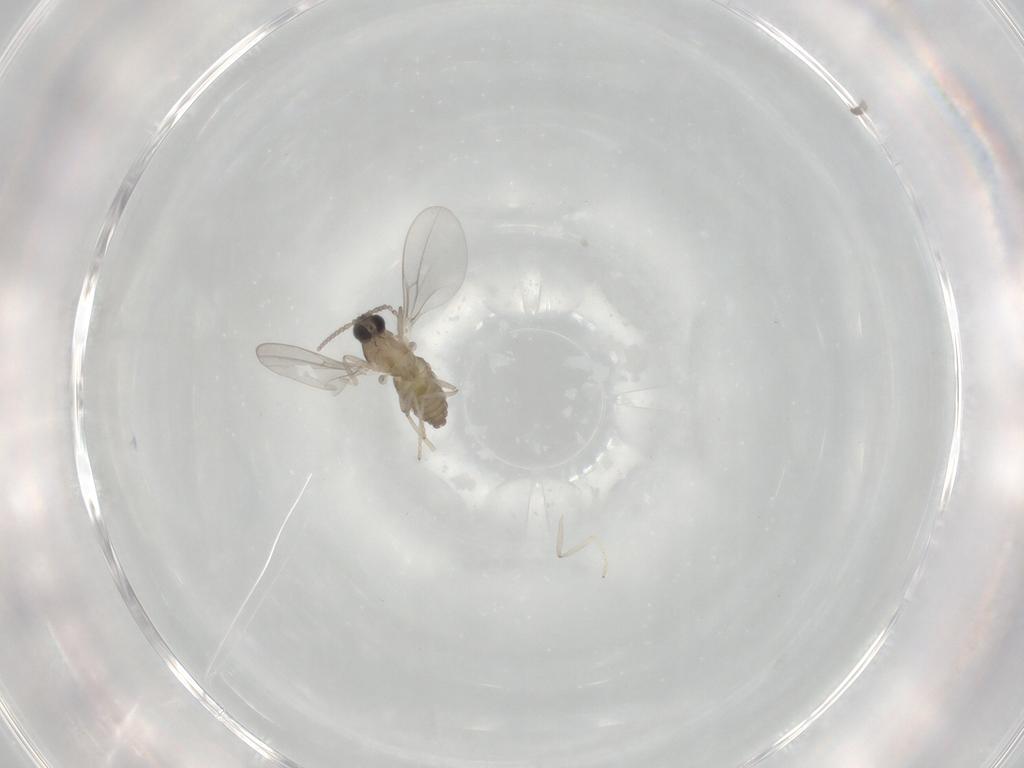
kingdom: Animalia
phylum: Arthropoda
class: Insecta
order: Diptera
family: Cecidomyiidae
